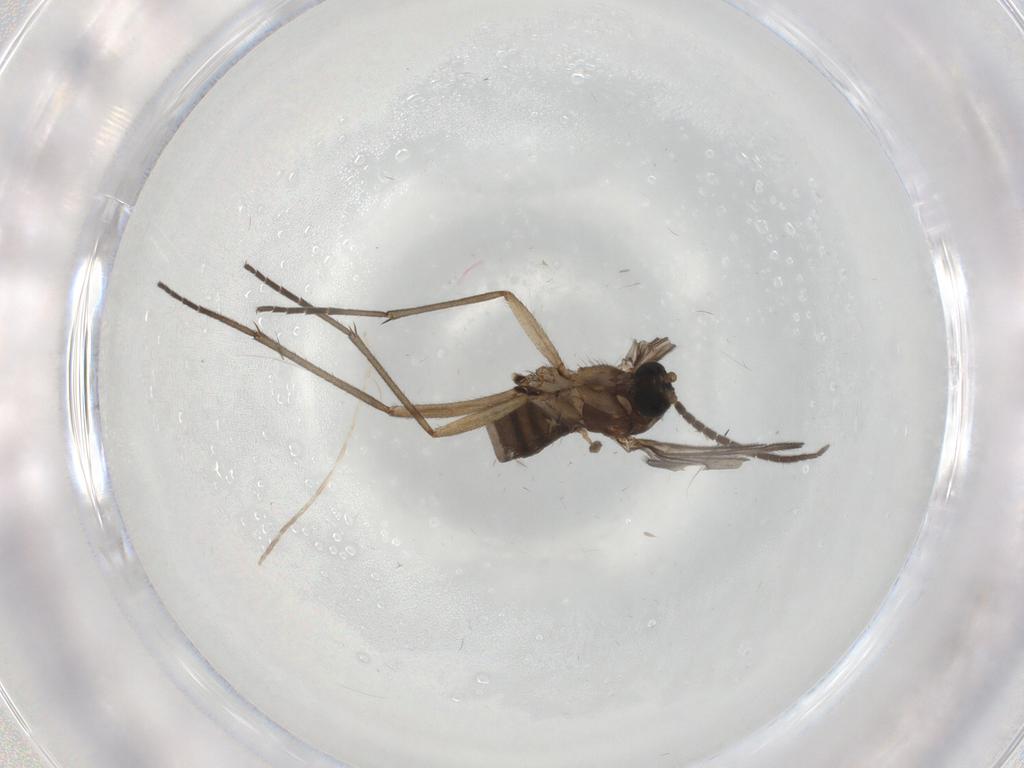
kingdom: Animalia
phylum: Arthropoda
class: Insecta
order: Diptera
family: Sciaridae
